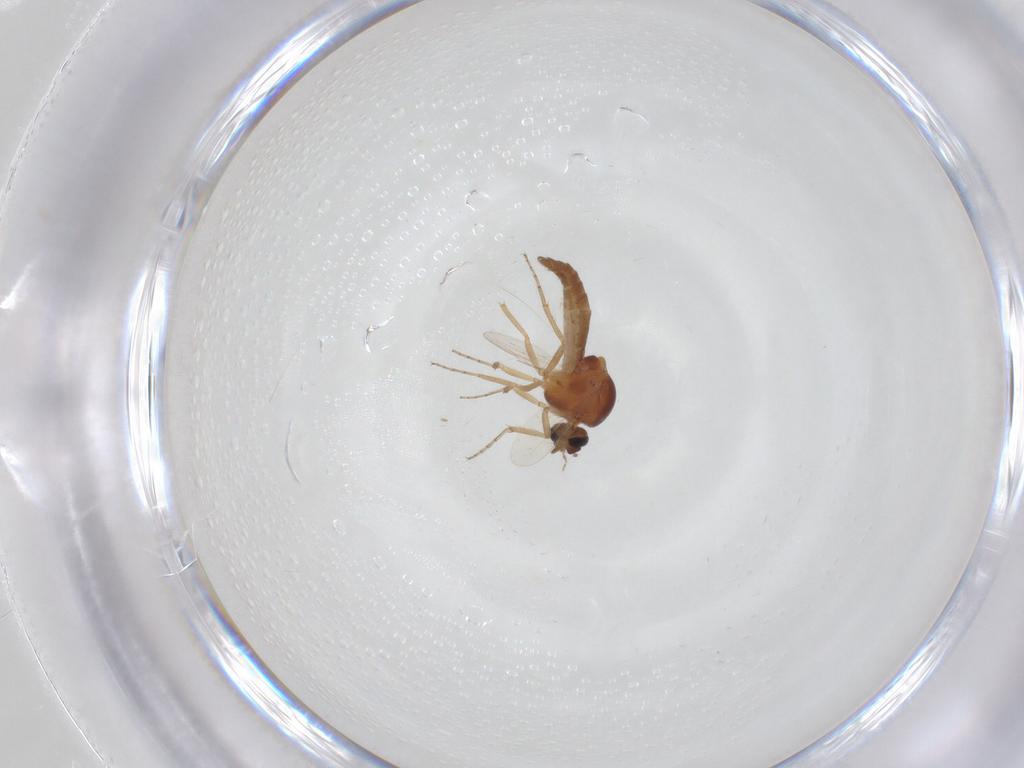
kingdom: Animalia
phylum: Arthropoda
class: Insecta
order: Diptera
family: Ceratopogonidae
